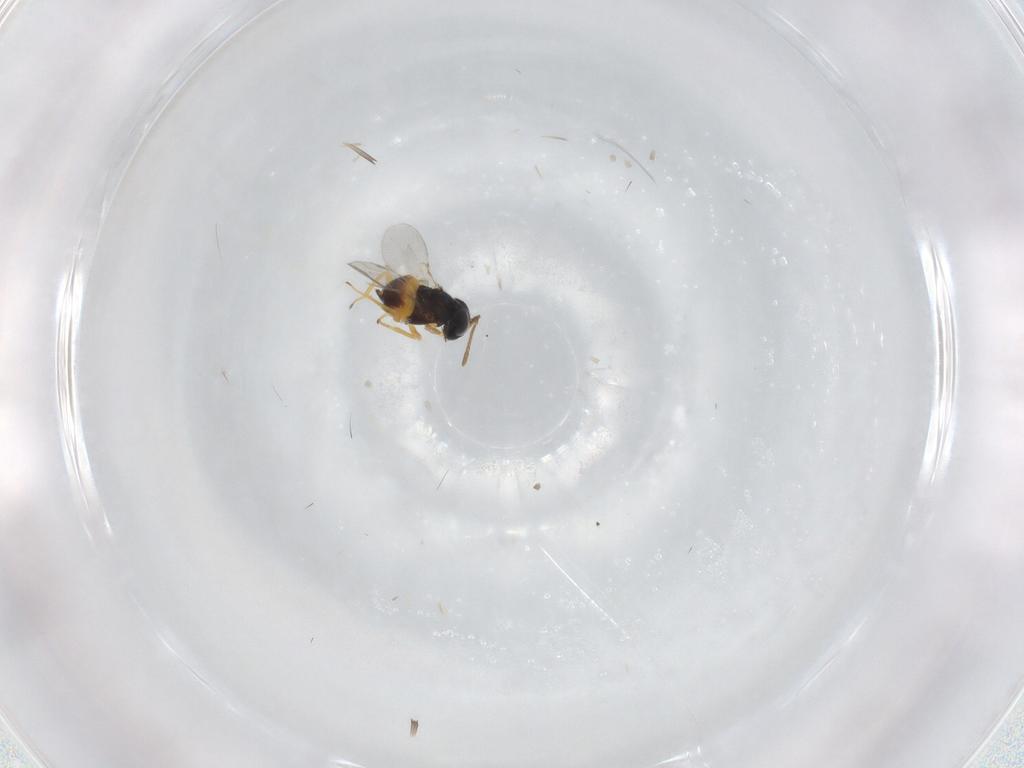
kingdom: Animalia
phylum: Arthropoda
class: Insecta
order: Hymenoptera
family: Encyrtidae
